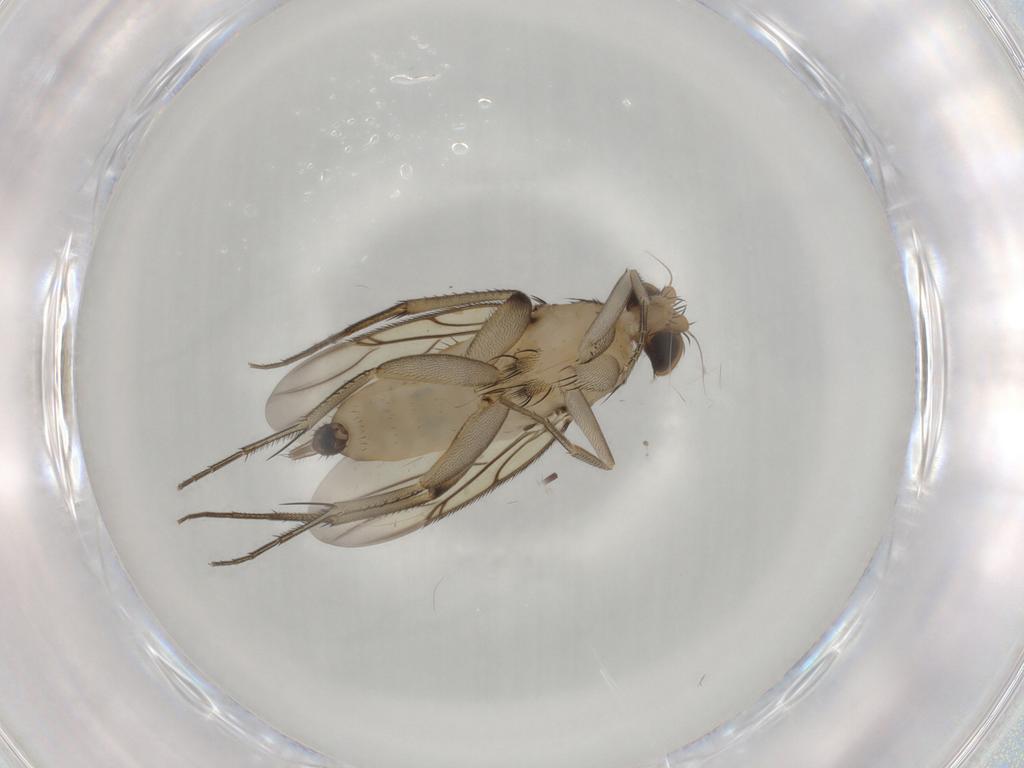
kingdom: Animalia
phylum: Arthropoda
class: Insecta
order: Diptera
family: Phoridae
